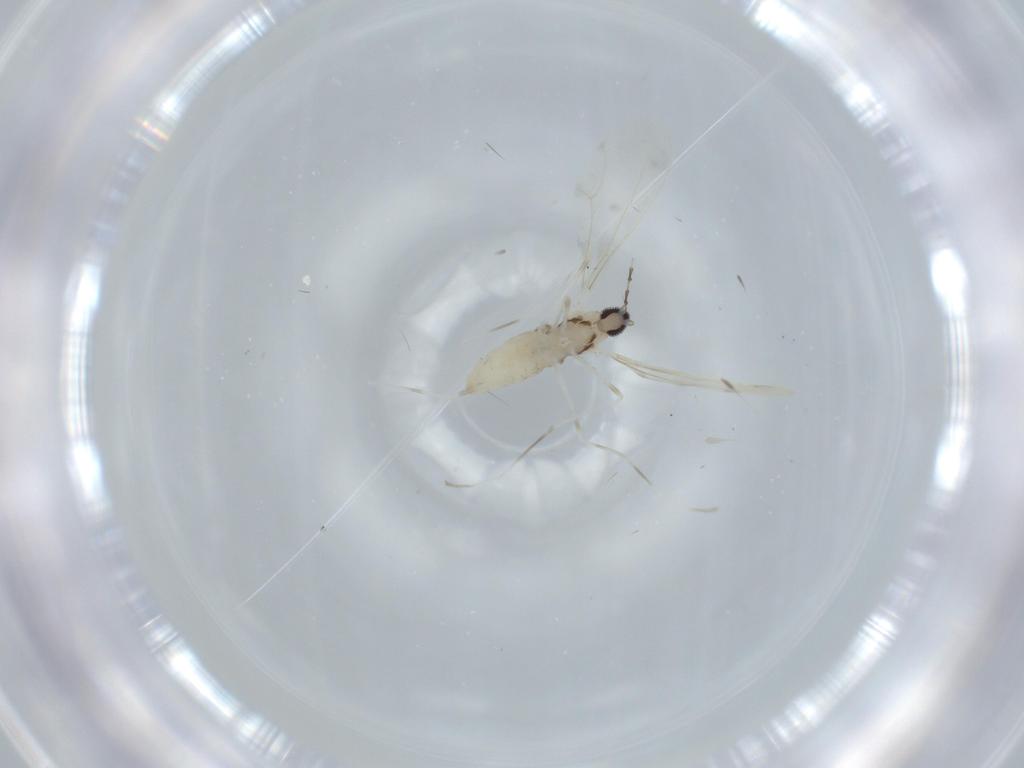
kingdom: Animalia
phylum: Arthropoda
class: Insecta
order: Diptera
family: Cecidomyiidae
